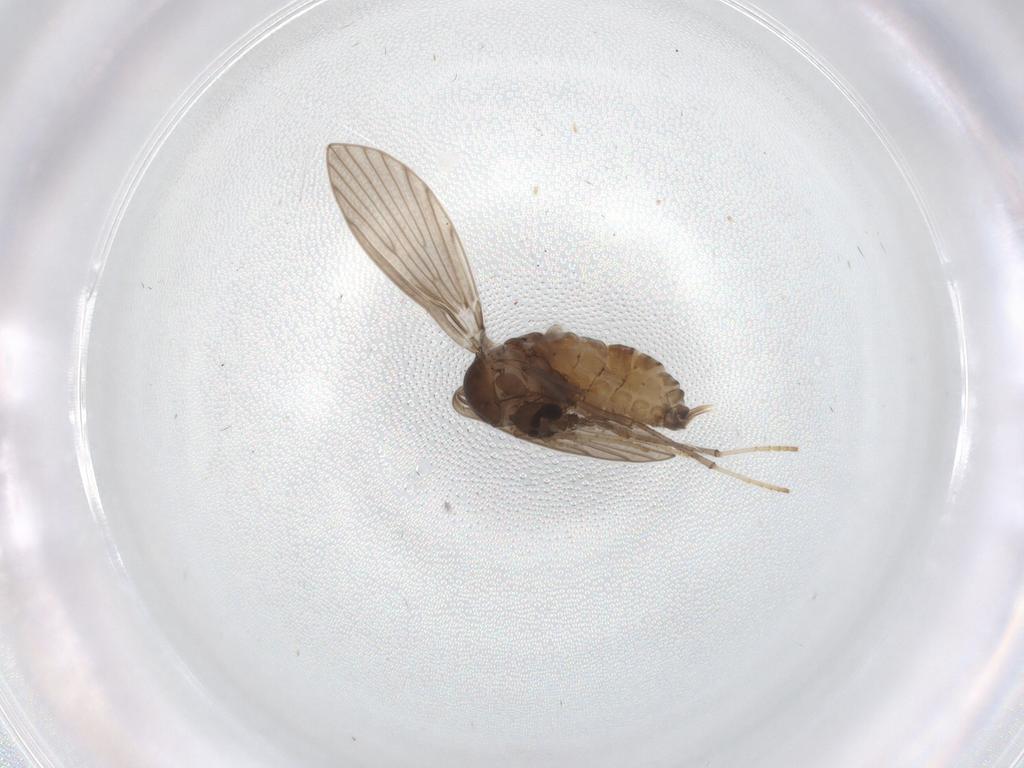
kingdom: Animalia
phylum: Arthropoda
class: Insecta
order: Diptera
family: Phoridae
